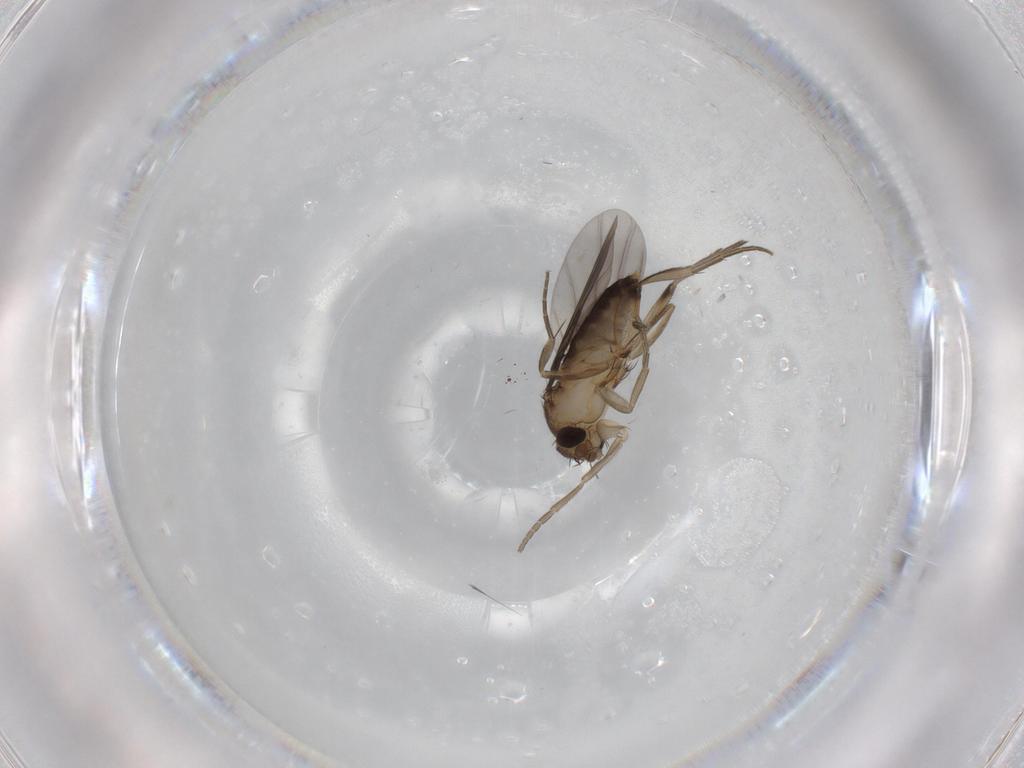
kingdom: Animalia
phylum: Arthropoda
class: Insecta
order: Diptera
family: Phoridae
